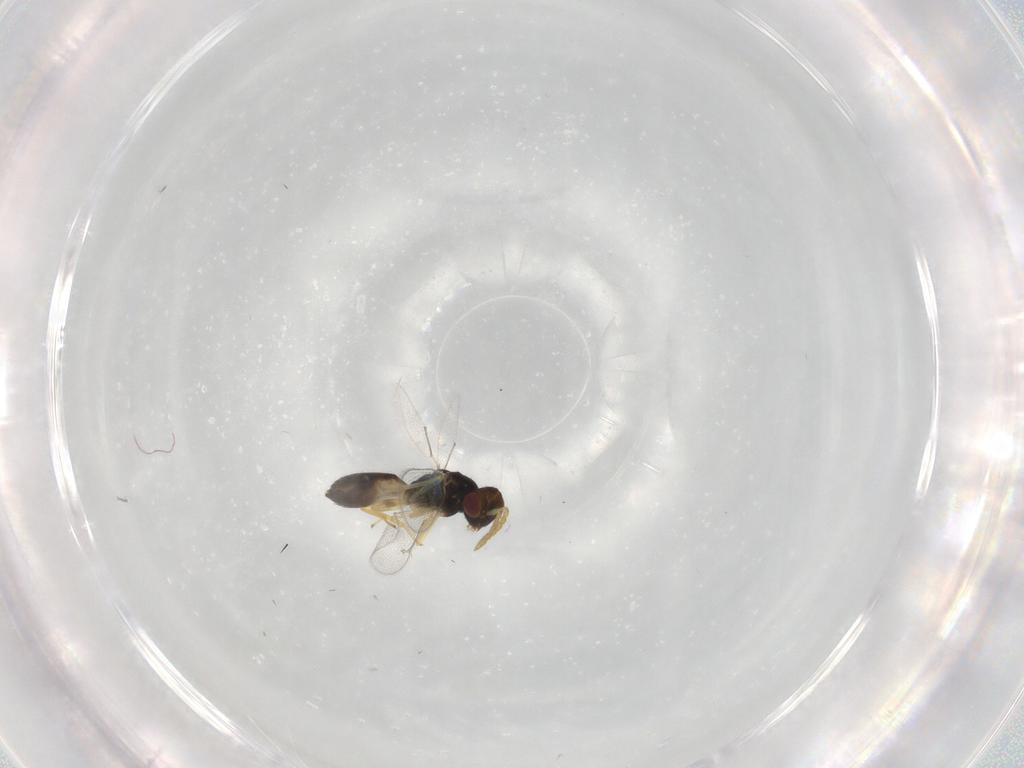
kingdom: Animalia
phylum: Arthropoda
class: Insecta
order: Hymenoptera
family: Eulophidae
